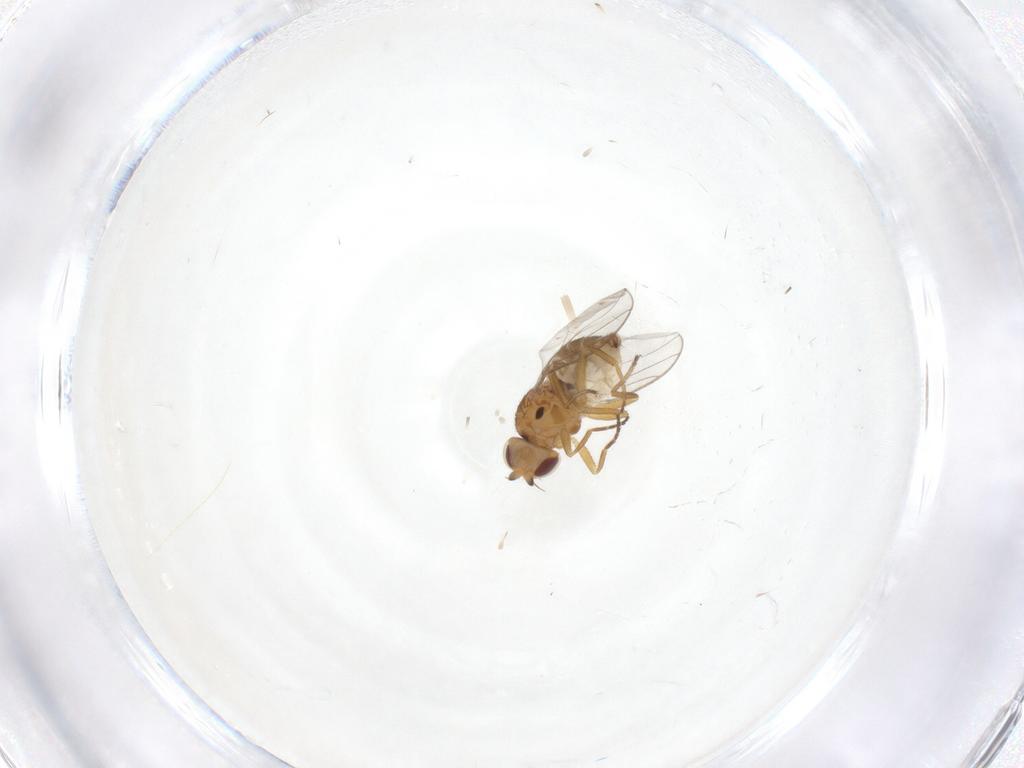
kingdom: Animalia
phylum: Arthropoda
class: Insecta
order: Diptera
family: Chloropidae
